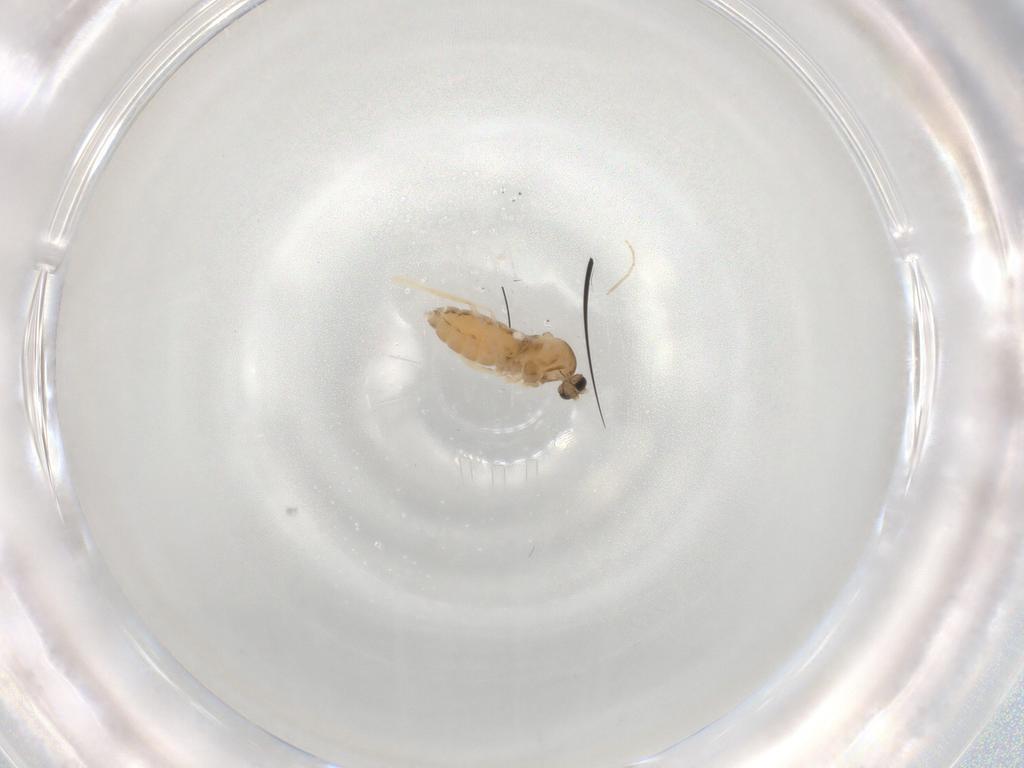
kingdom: Animalia
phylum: Arthropoda
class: Insecta
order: Diptera
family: Cecidomyiidae
